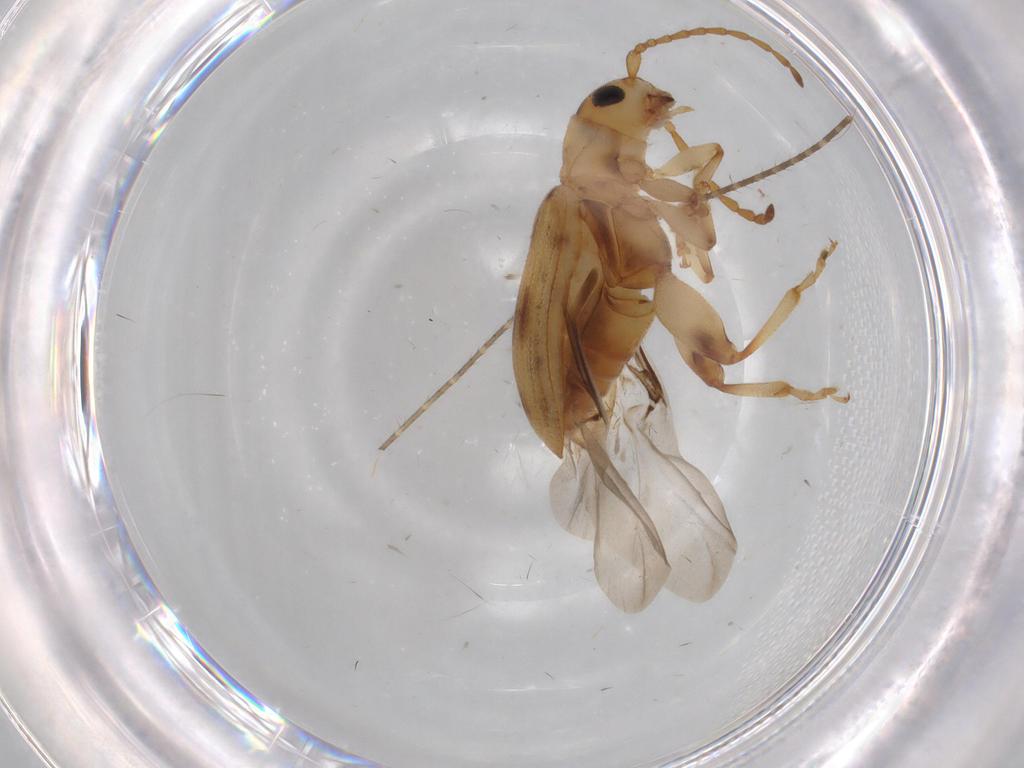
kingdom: Animalia
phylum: Arthropoda
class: Insecta
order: Coleoptera
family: Chrysomelidae
